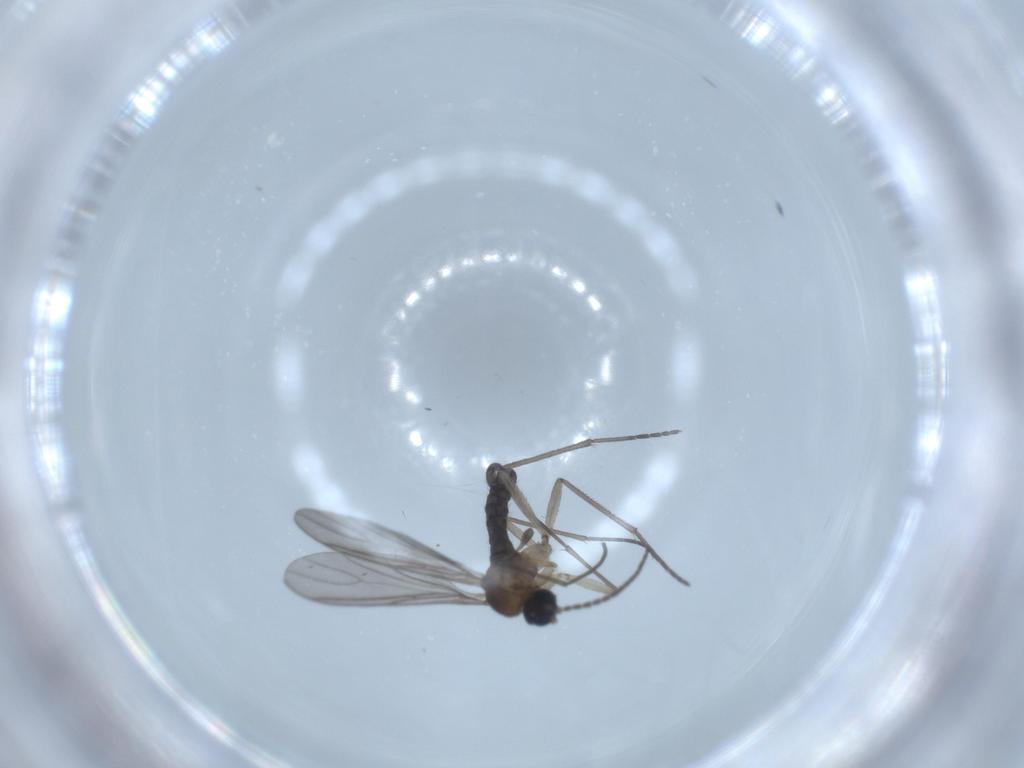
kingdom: Animalia
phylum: Arthropoda
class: Insecta
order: Diptera
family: Sciaridae
